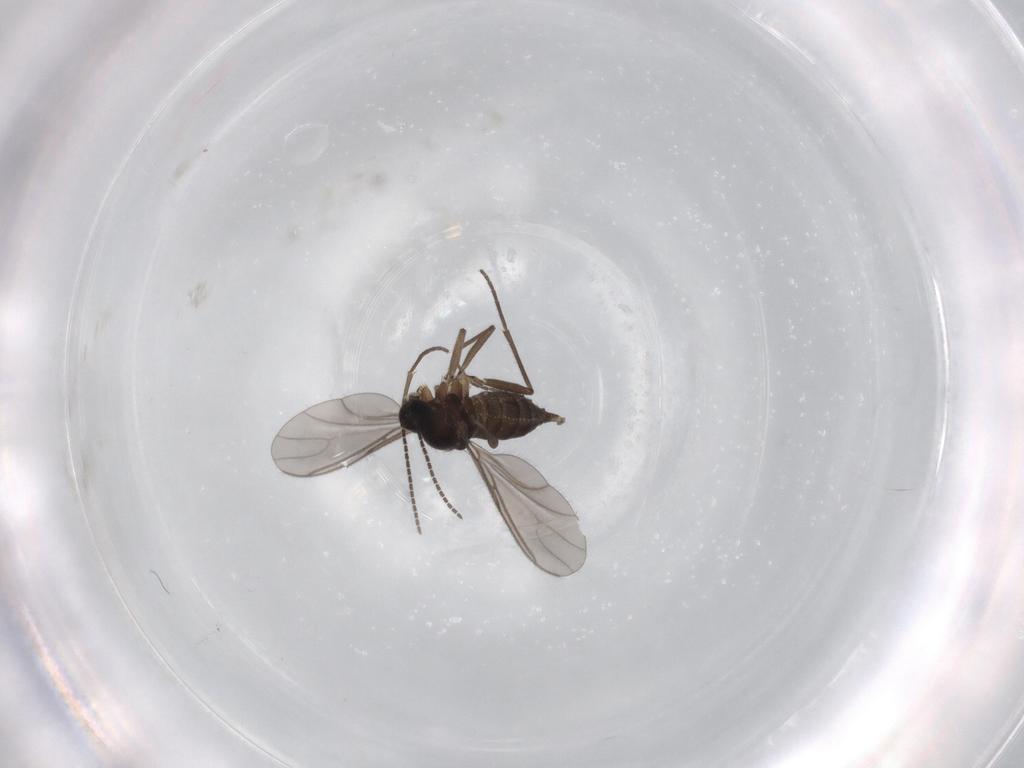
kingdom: Animalia
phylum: Arthropoda
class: Insecta
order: Diptera
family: Sciaridae
